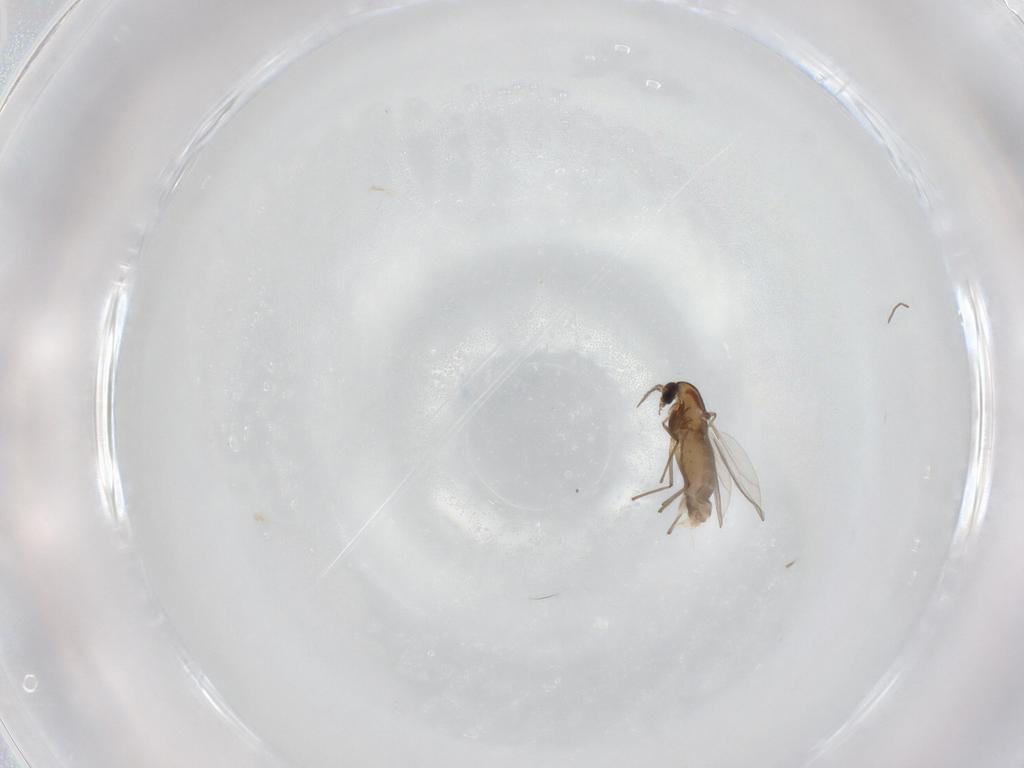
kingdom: Animalia
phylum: Arthropoda
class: Insecta
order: Diptera
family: Chironomidae
